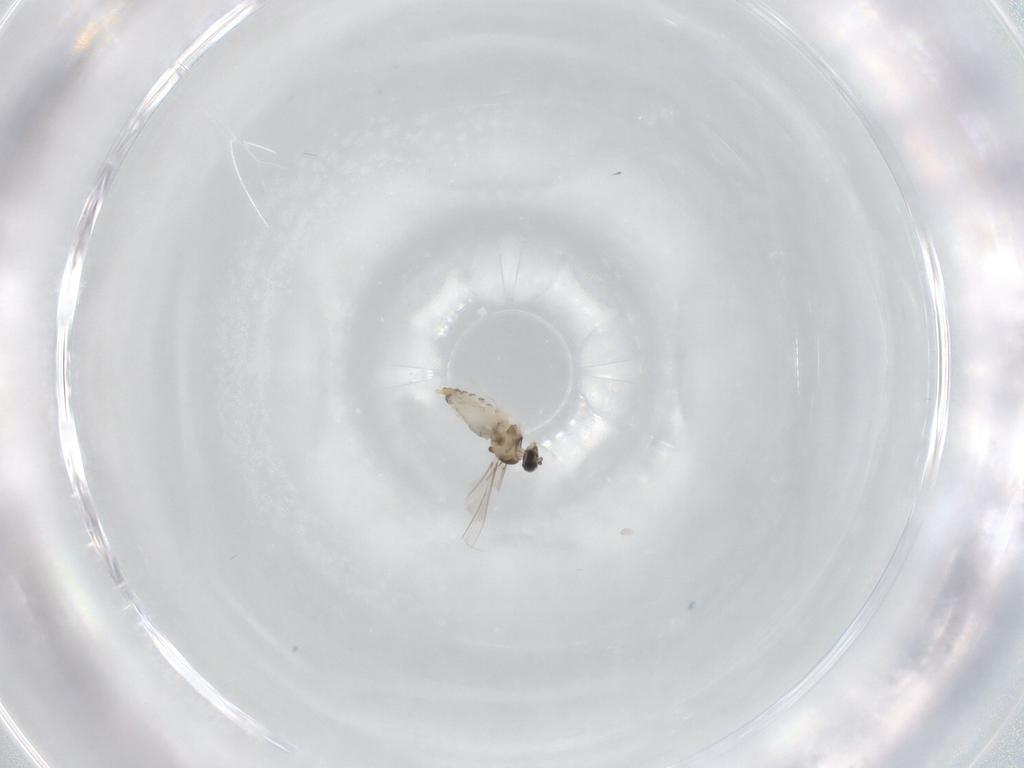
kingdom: Animalia
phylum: Arthropoda
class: Insecta
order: Diptera
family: Cecidomyiidae
